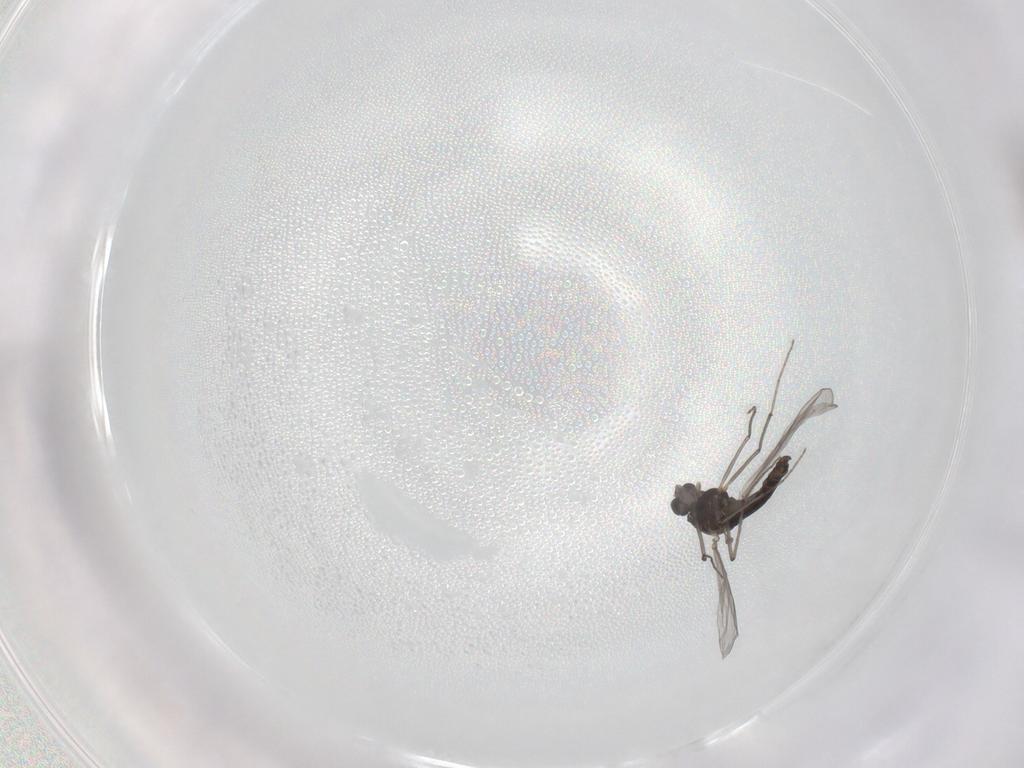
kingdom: Animalia
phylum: Arthropoda
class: Insecta
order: Diptera
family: Chironomidae
